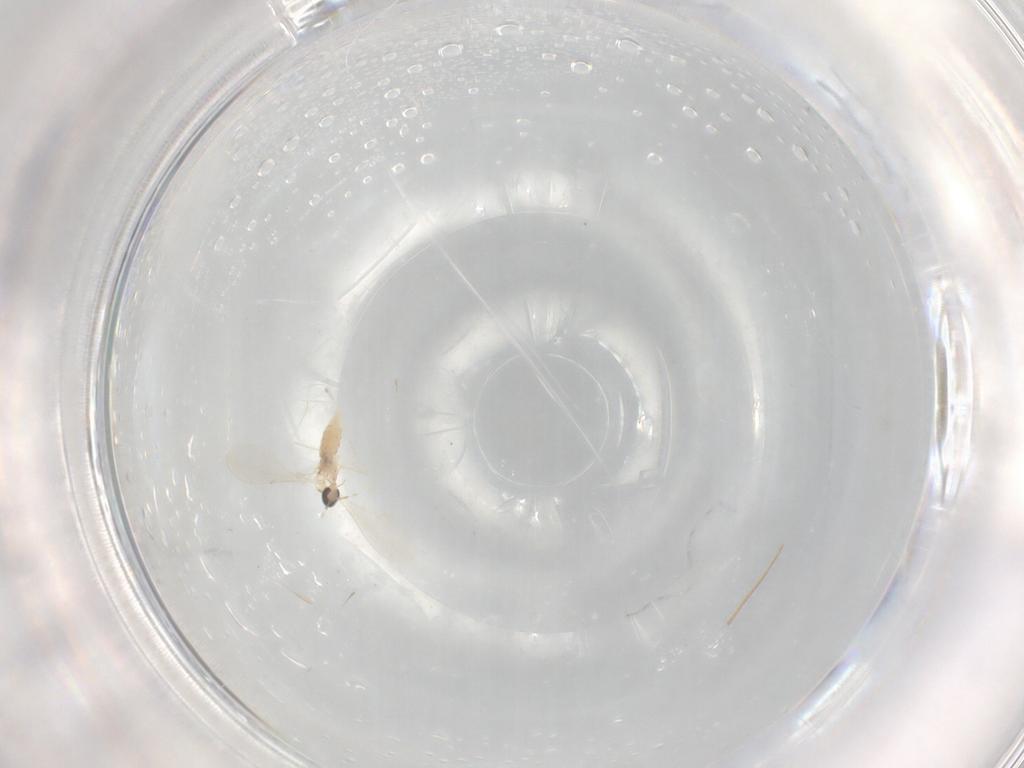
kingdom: Animalia
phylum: Arthropoda
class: Insecta
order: Diptera
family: Cecidomyiidae
